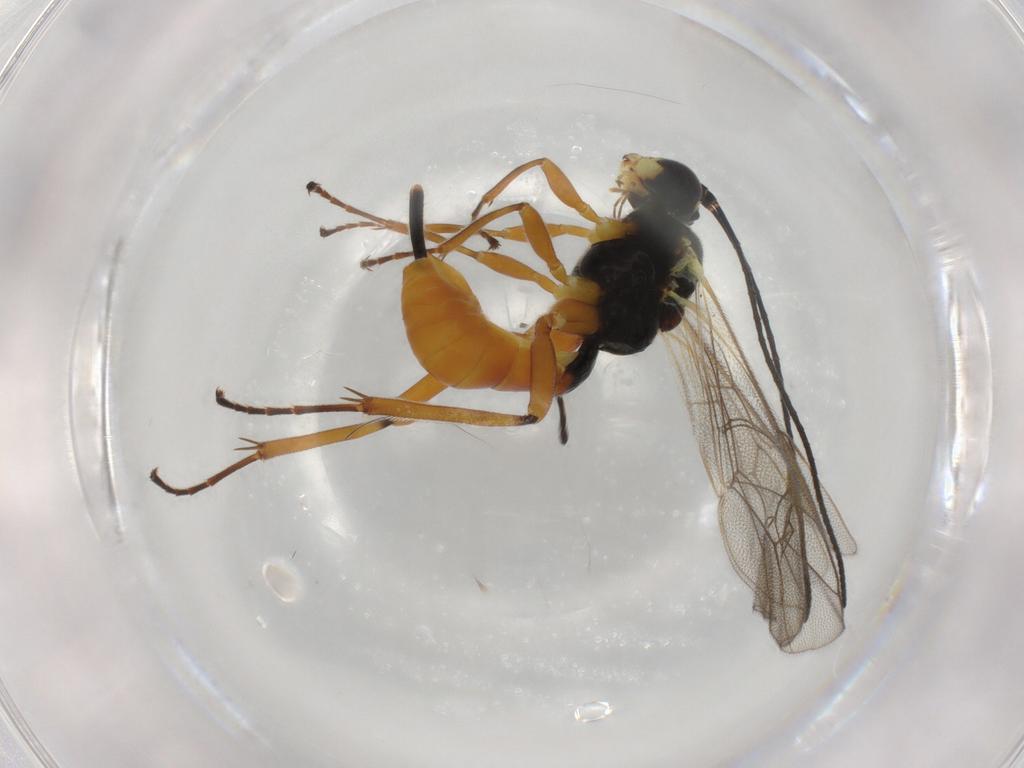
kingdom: Animalia
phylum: Arthropoda
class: Insecta
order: Hymenoptera
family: Ichneumonidae
